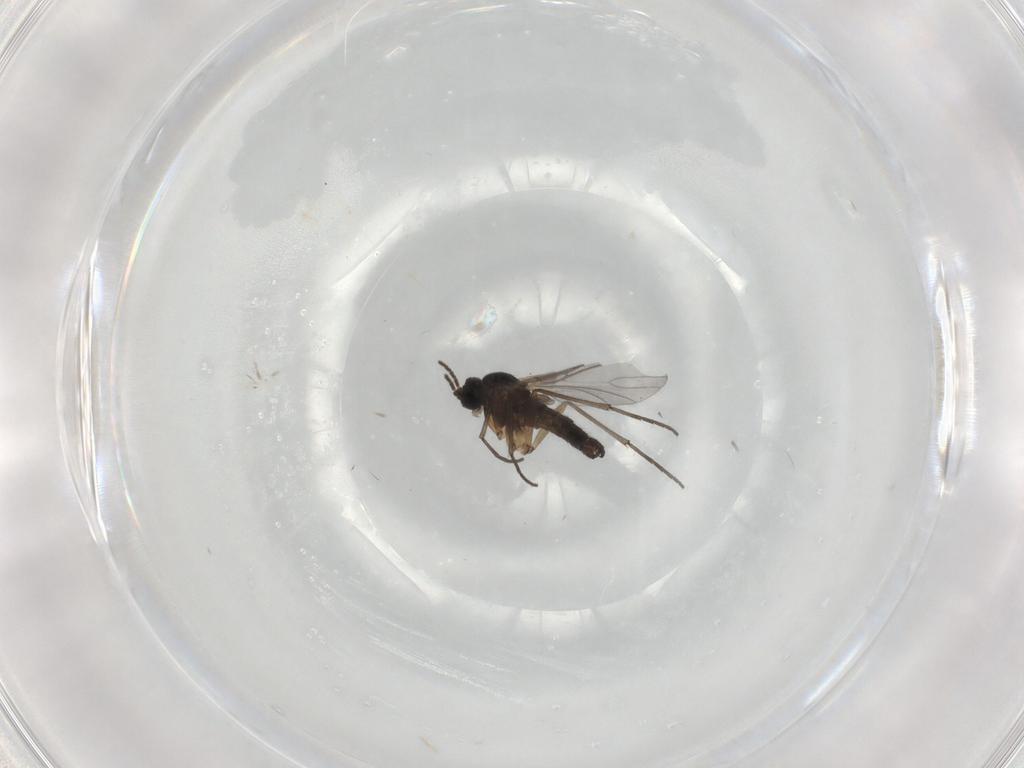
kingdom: Animalia
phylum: Arthropoda
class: Insecta
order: Diptera
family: Sciaridae
